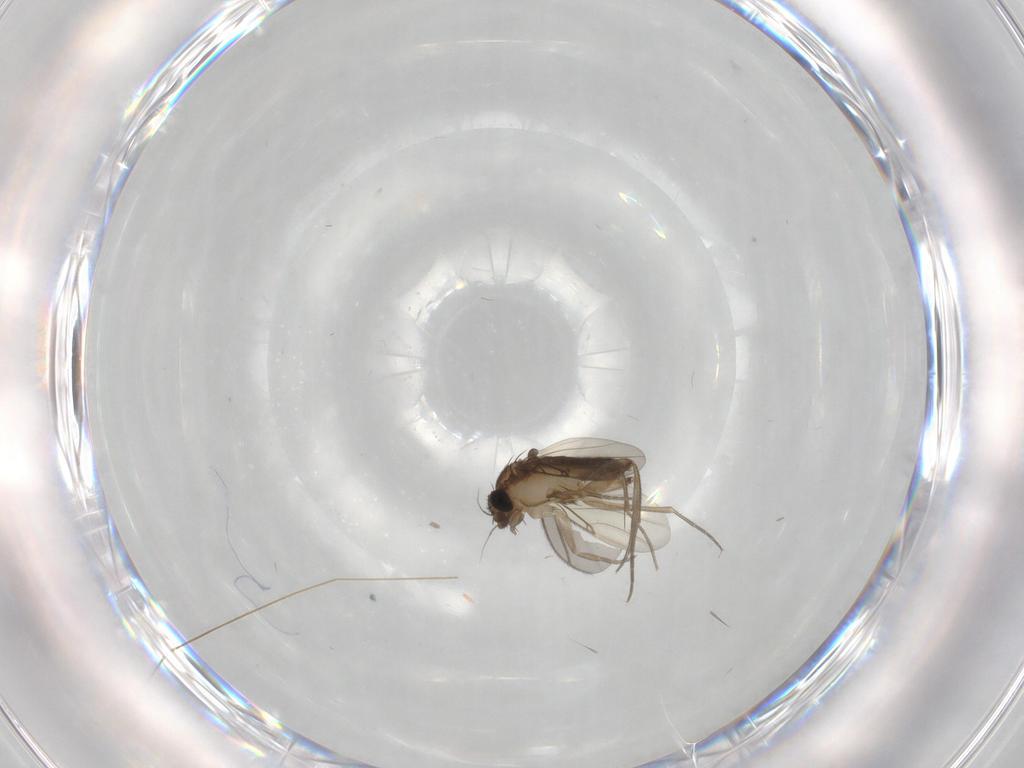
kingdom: Animalia
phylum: Arthropoda
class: Insecta
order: Diptera
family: Phoridae
